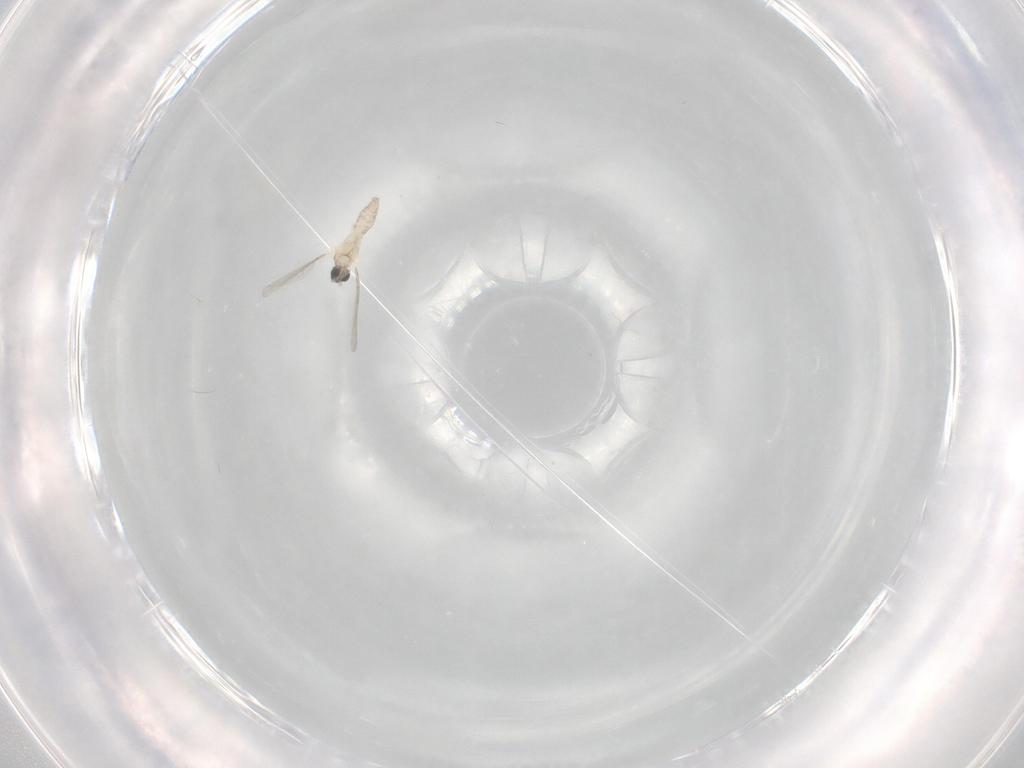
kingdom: Animalia
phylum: Arthropoda
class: Insecta
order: Diptera
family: Cecidomyiidae
